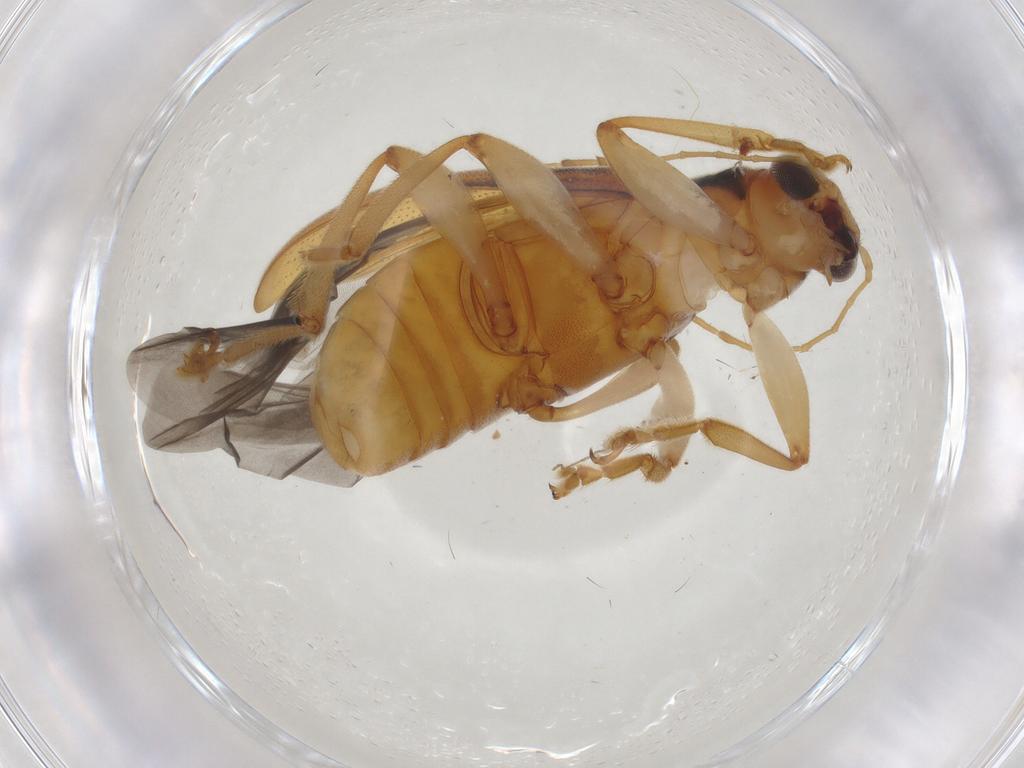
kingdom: Animalia
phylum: Arthropoda
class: Insecta
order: Coleoptera
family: Chrysomelidae
